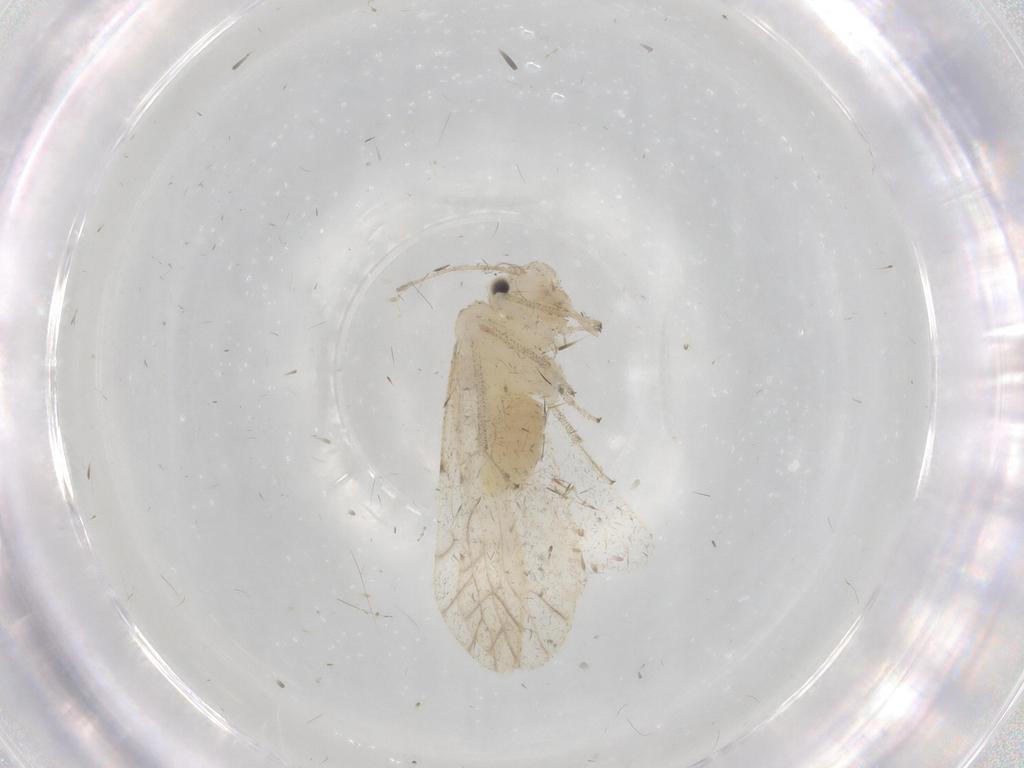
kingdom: Animalia
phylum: Arthropoda
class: Insecta
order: Psocodea
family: Caeciliusidae
